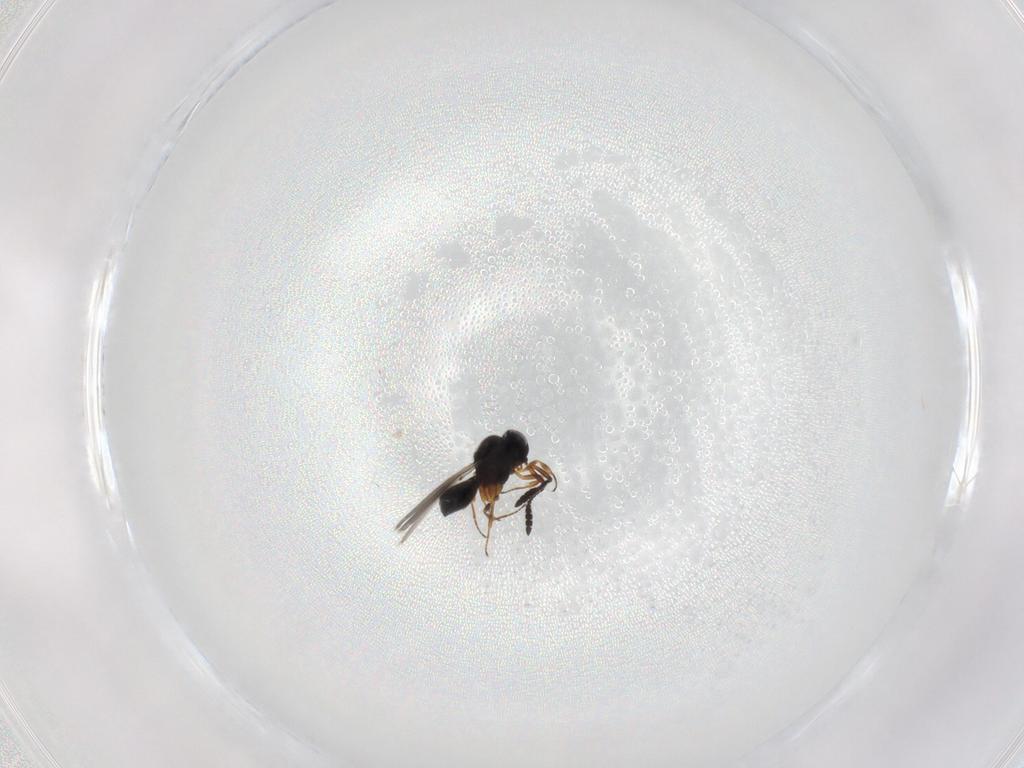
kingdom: Animalia
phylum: Arthropoda
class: Insecta
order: Hymenoptera
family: Scelionidae
